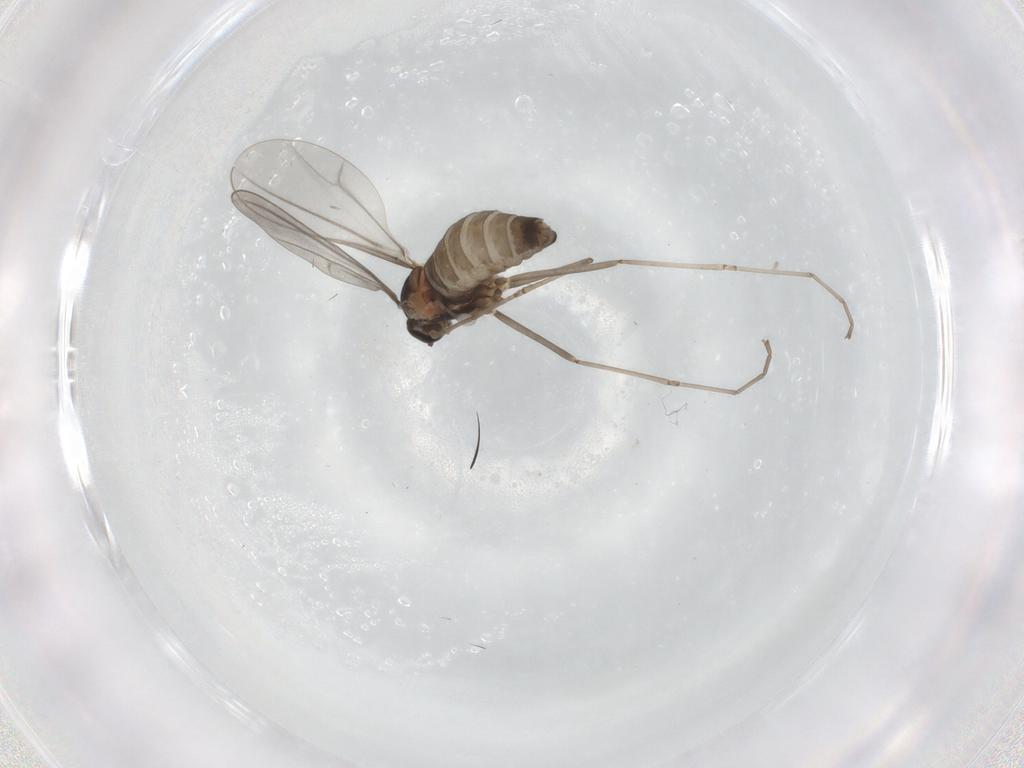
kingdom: Animalia
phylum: Arthropoda
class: Insecta
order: Diptera
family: Cecidomyiidae
